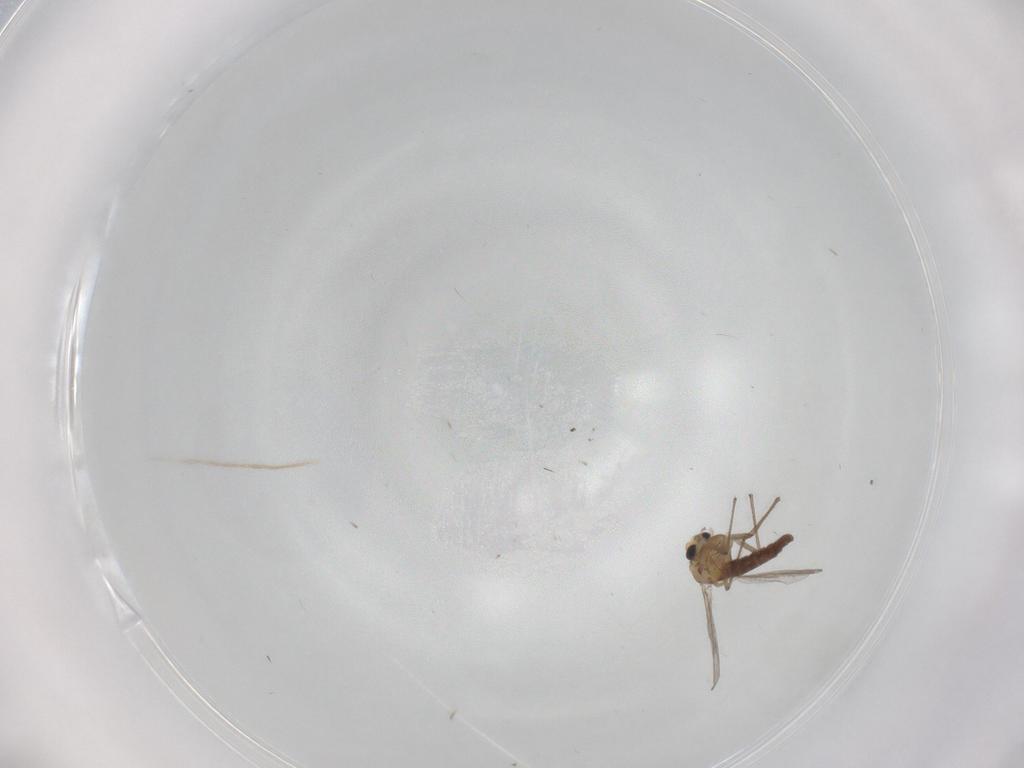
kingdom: Animalia
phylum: Arthropoda
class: Insecta
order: Diptera
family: Chironomidae
